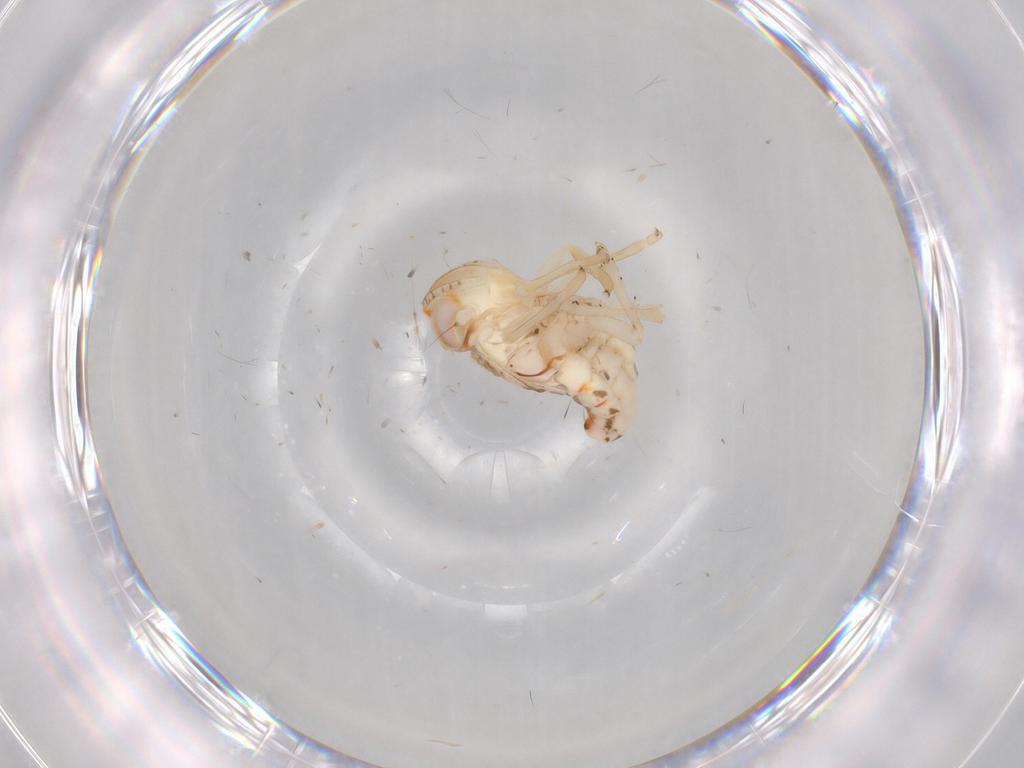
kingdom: Animalia
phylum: Arthropoda
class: Insecta
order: Hemiptera
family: Nogodinidae
